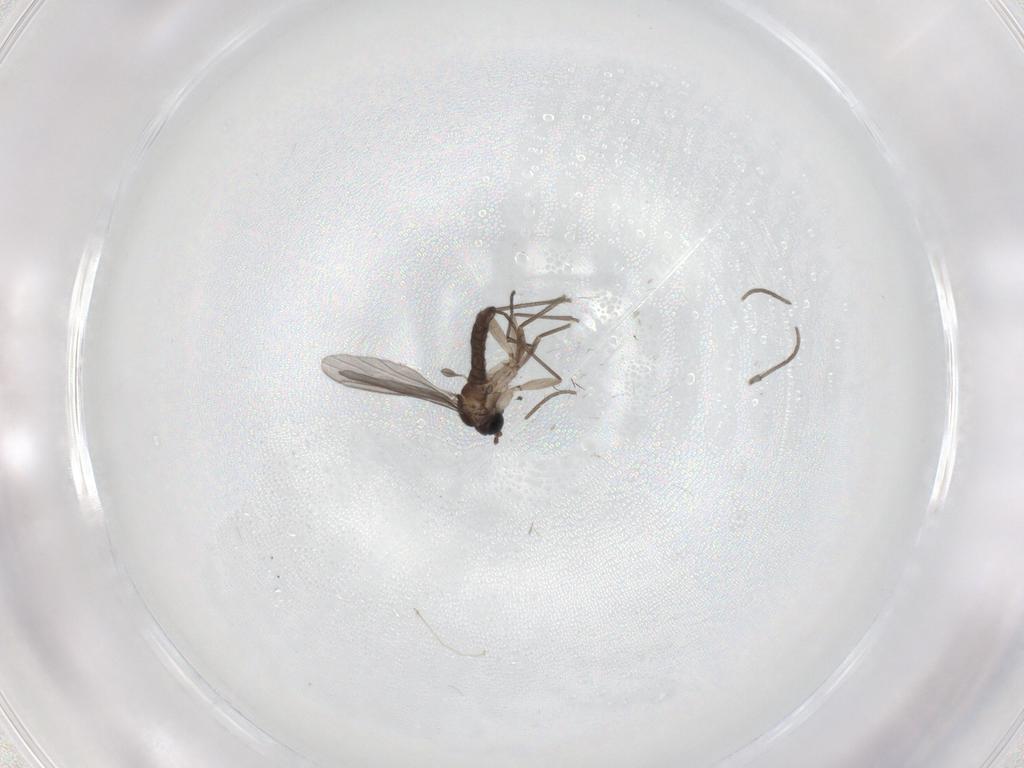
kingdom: Animalia
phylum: Arthropoda
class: Insecta
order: Diptera
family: Sciaridae
